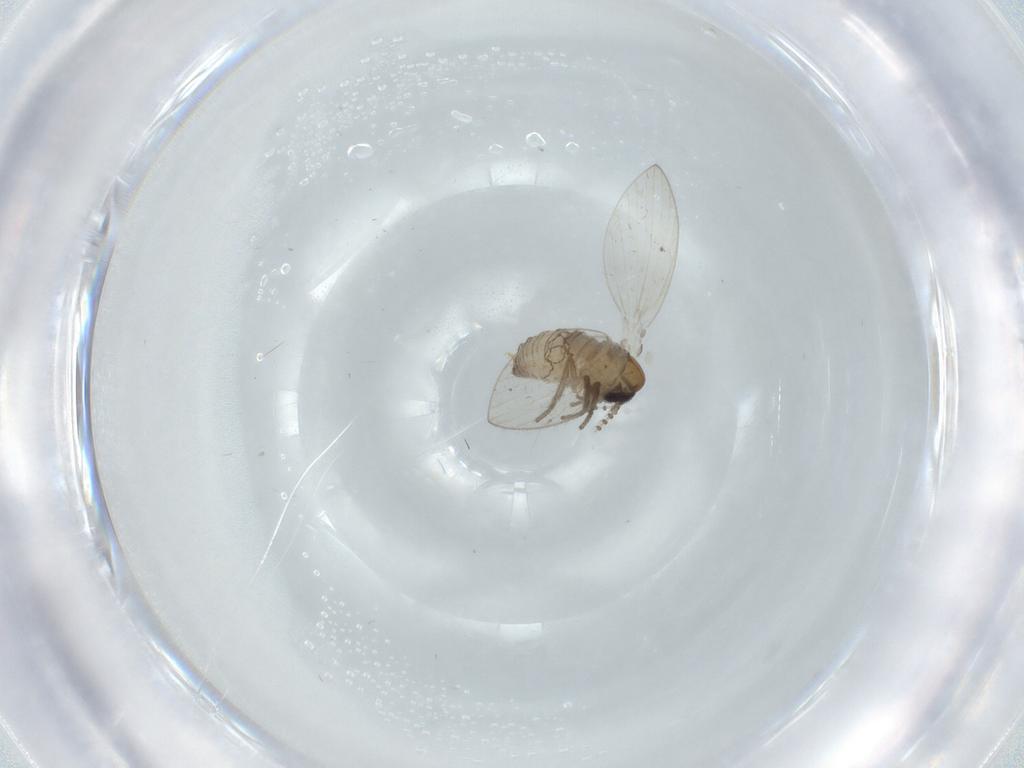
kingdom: Animalia
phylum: Arthropoda
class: Insecta
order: Diptera
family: Psychodidae
